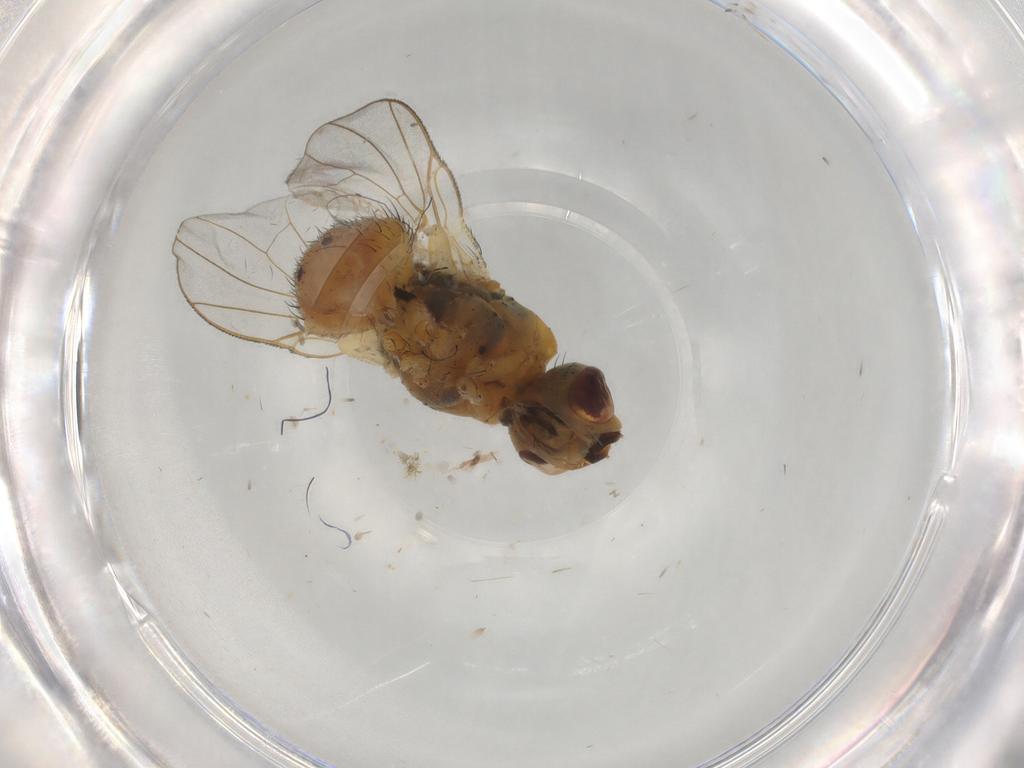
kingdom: Animalia
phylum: Arthropoda
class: Insecta
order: Diptera
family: Muscidae
